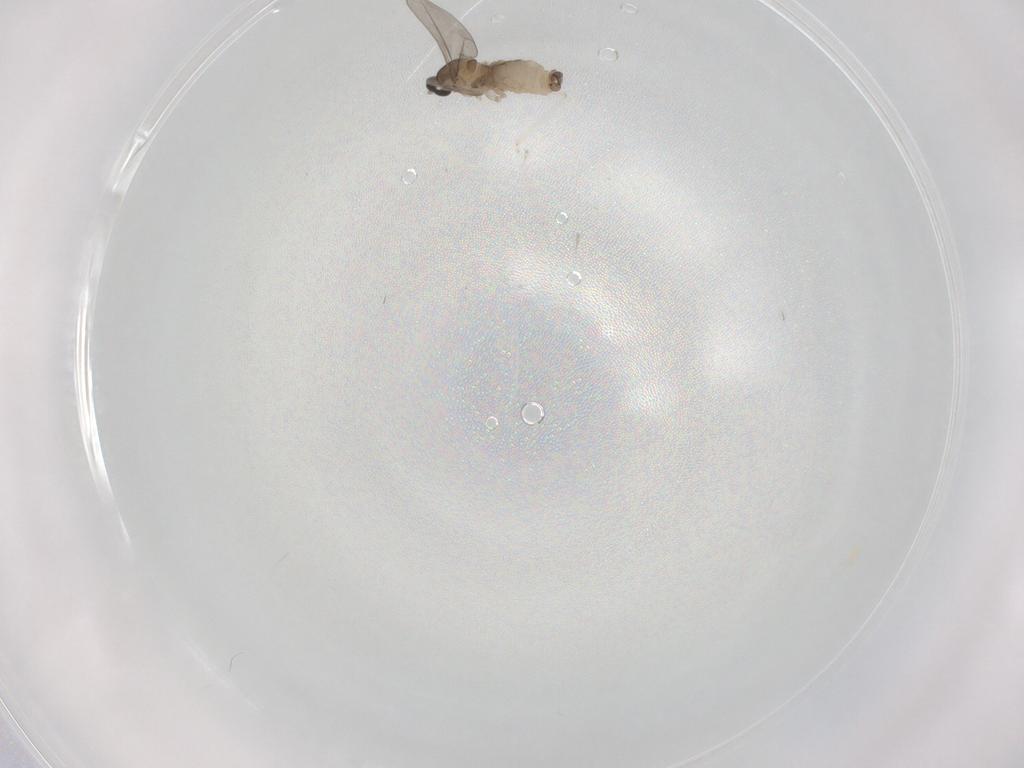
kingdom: Animalia
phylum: Arthropoda
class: Insecta
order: Diptera
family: Cecidomyiidae
